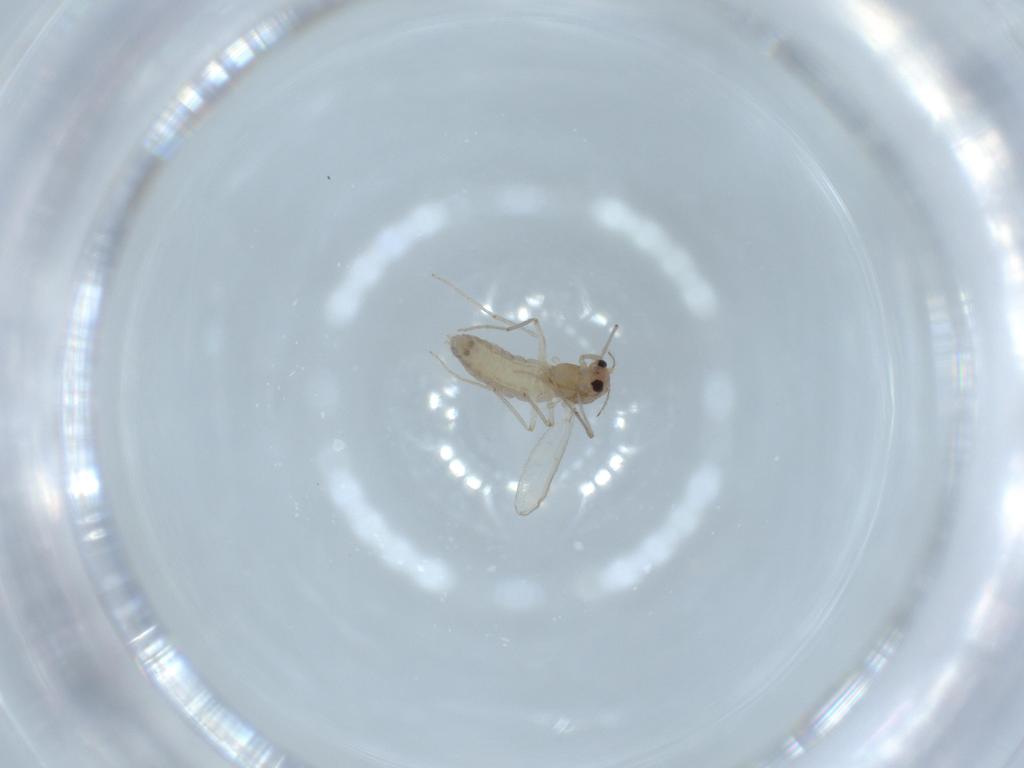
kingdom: Animalia
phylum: Arthropoda
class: Insecta
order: Diptera
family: Chironomidae
